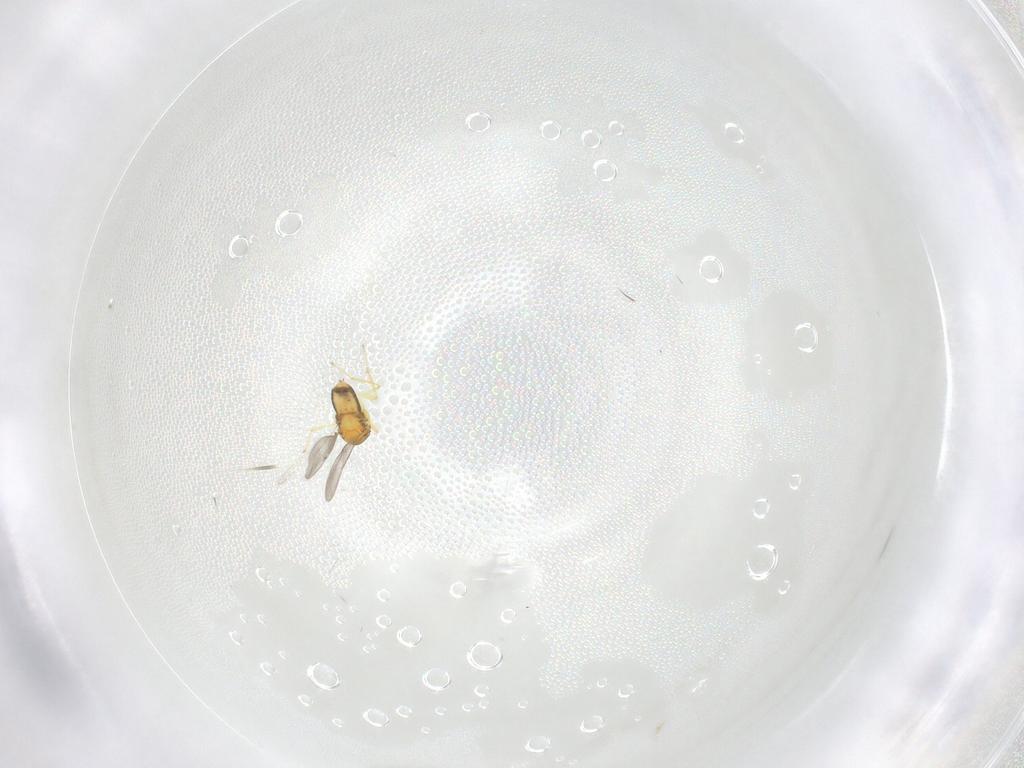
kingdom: Animalia
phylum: Arthropoda
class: Insecta
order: Hymenoptera
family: Aphelinidae
